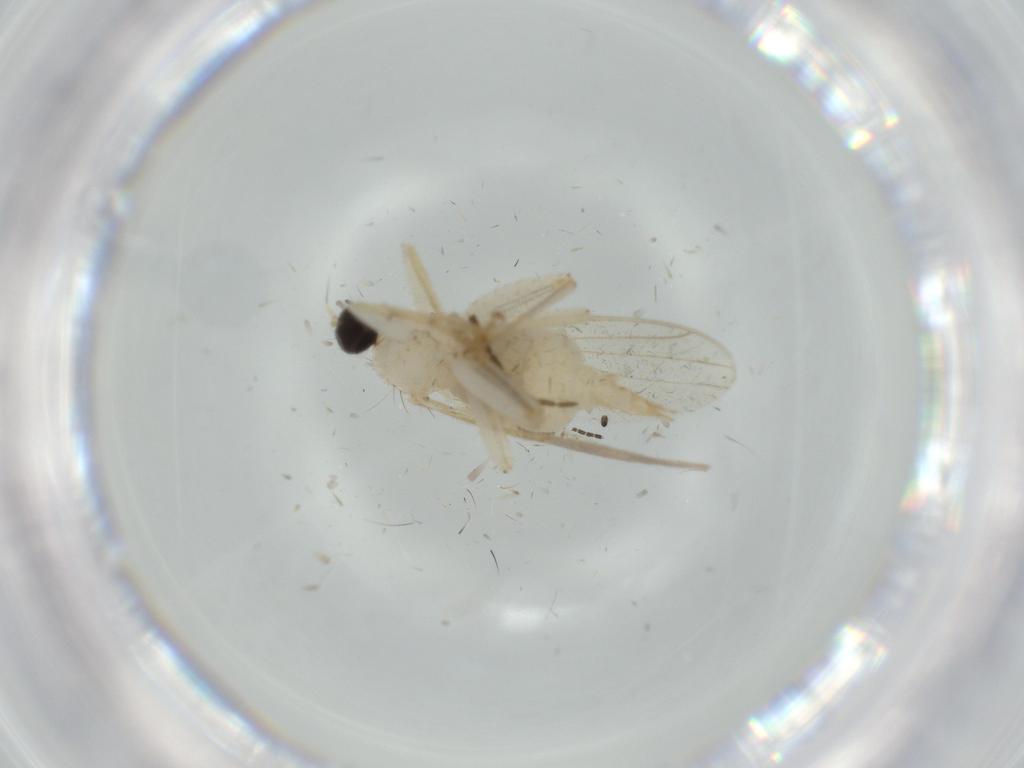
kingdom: Animalia
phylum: Arthropoda
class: Insecta
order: Diptera
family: Hybotidae
